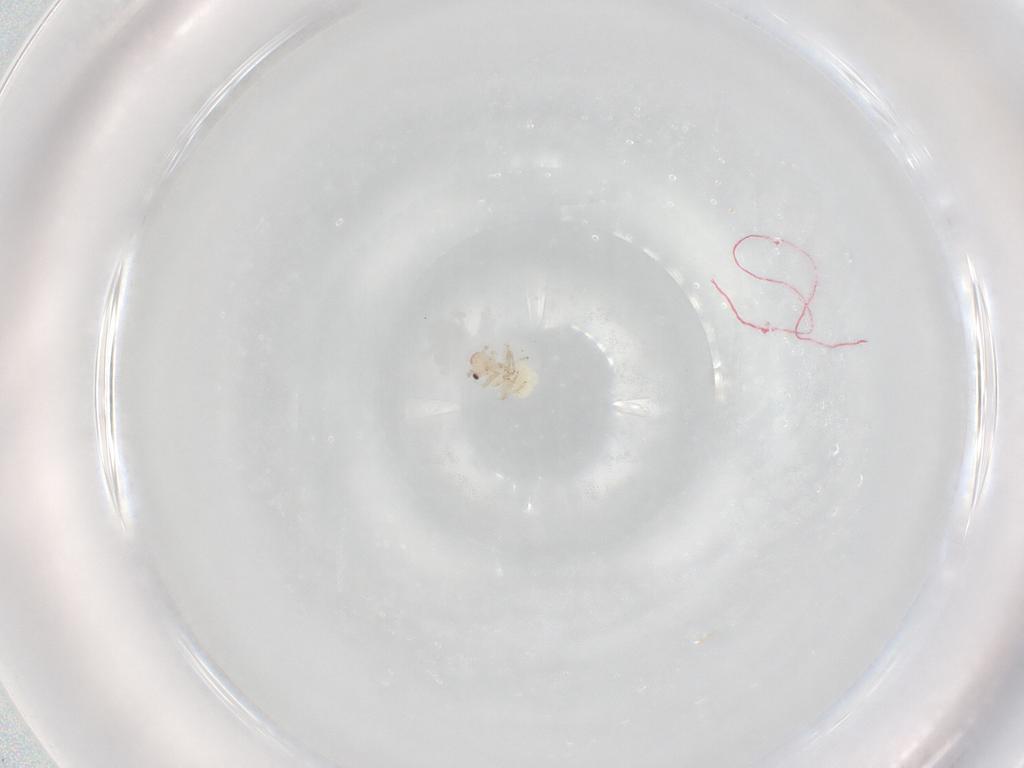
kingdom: Animalia
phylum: Arthropoda
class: Insecta
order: Psocodea
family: Caeciliusidae
